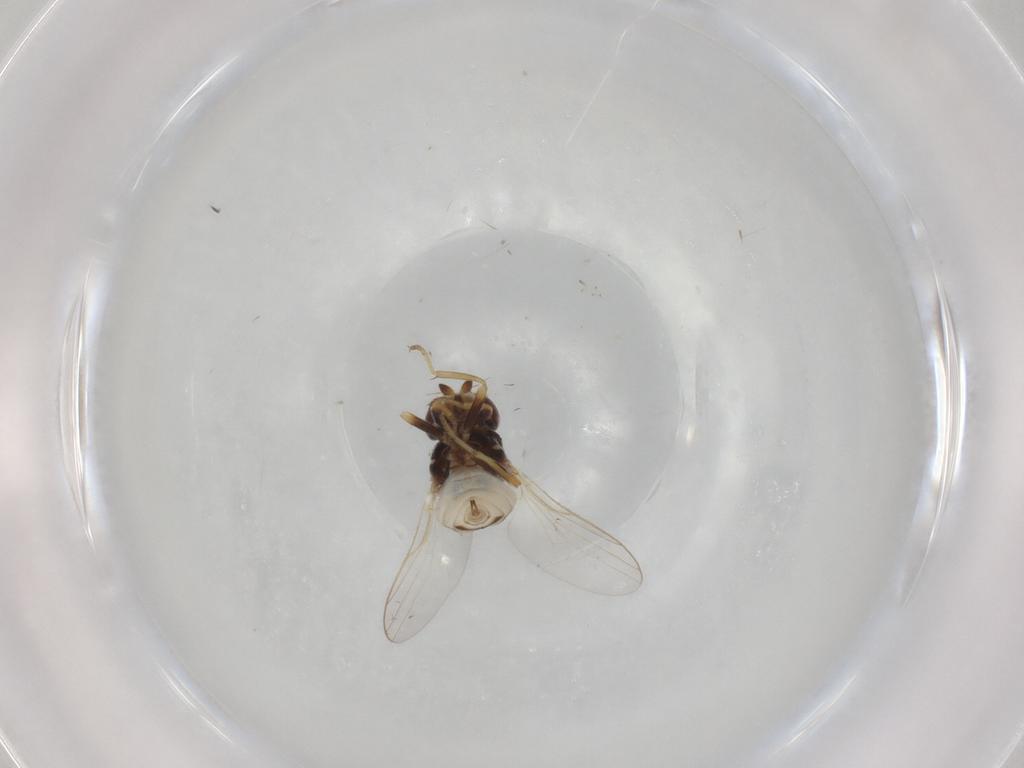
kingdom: Animalia
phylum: Arthropoda
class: Insecta
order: Diptera
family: Chloropidae
